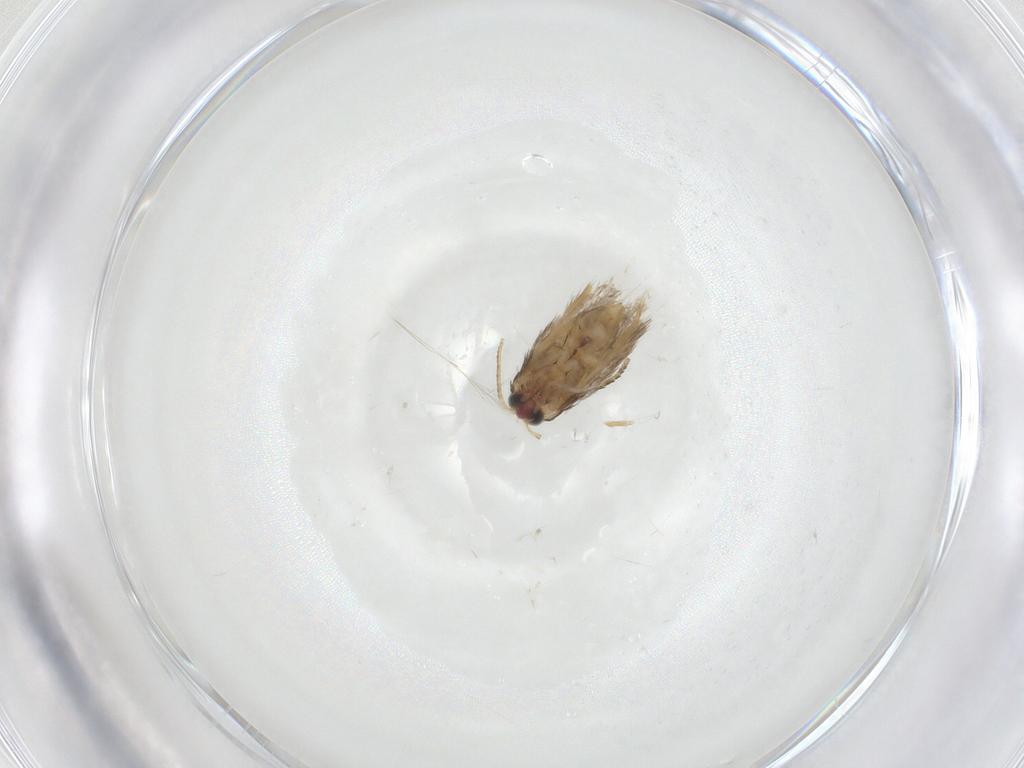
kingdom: Animalia
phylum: Arthropoda
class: Insecta
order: Lepidoptera
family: Nepticulidae
